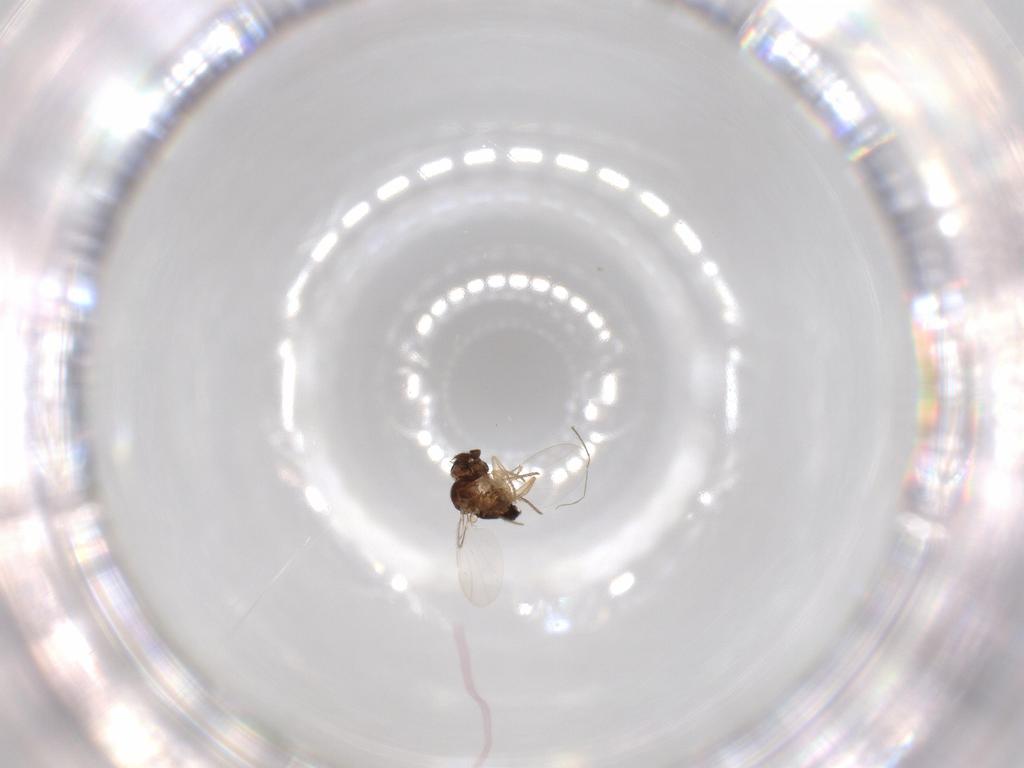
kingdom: Animalia
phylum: Arthropoda
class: Insecta
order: Diptera
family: Phoridae
